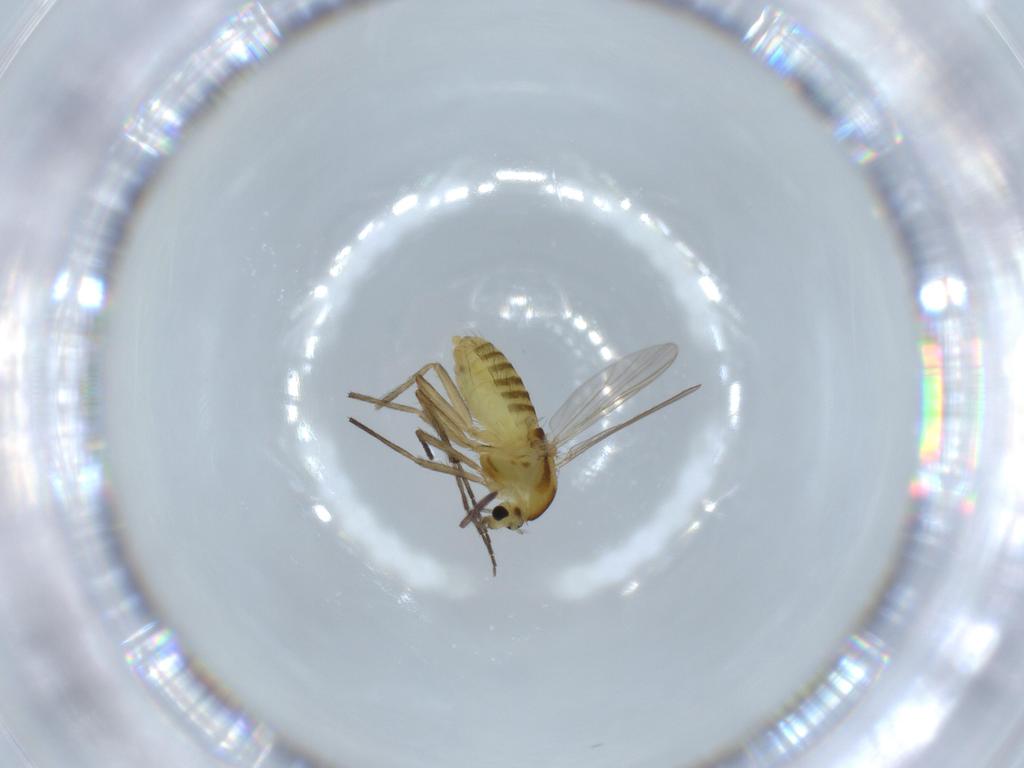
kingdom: Animalia
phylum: Arthropoda
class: Insecta
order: Diptera
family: Chironomidae
